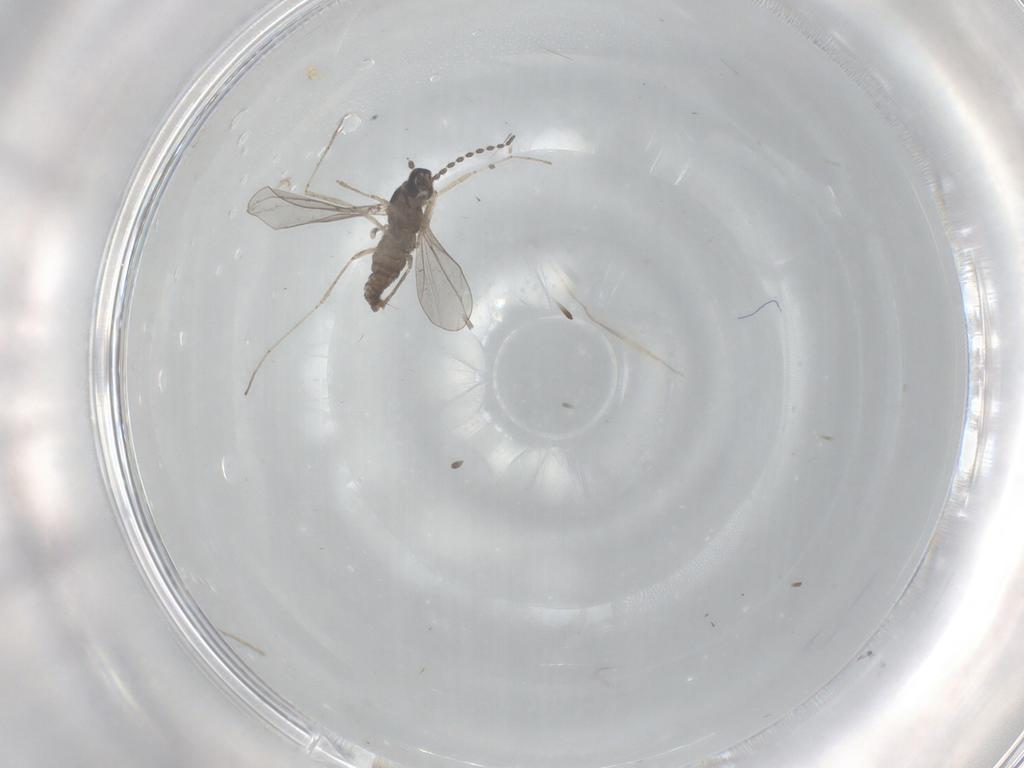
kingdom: Animalia
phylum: Arthropoda
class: Insecta
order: Diptera
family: Cecidomyiidae
